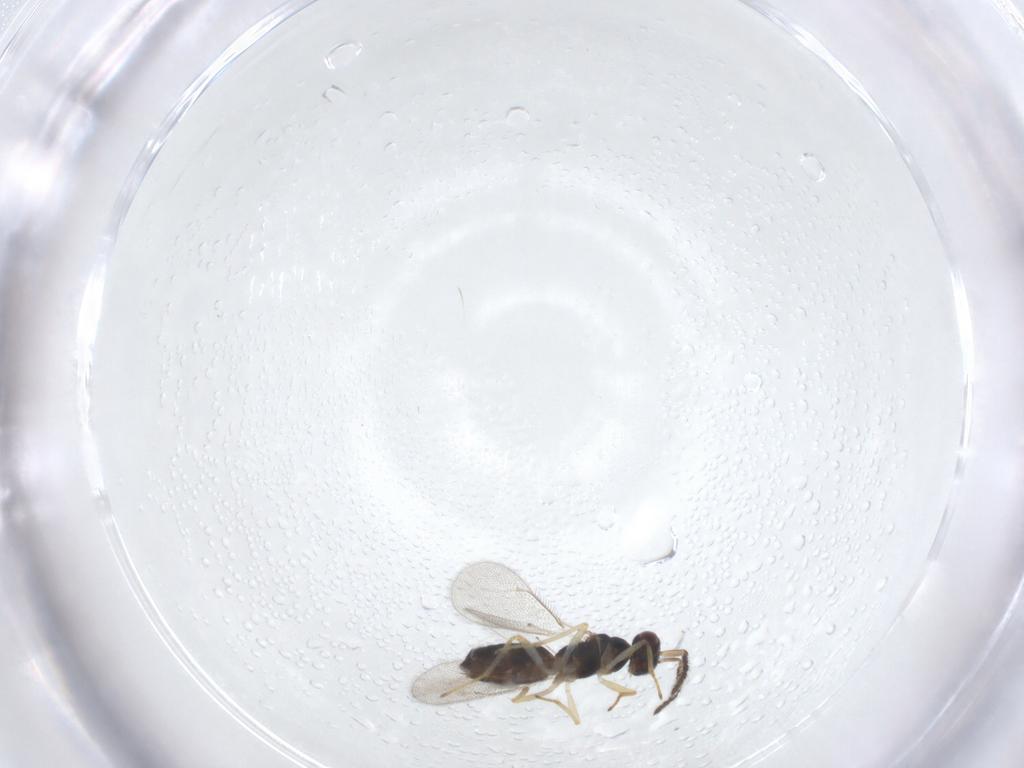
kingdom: Animalia
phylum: Arthropoda
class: Insecta
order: Hymenoptera
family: Eulophidae
